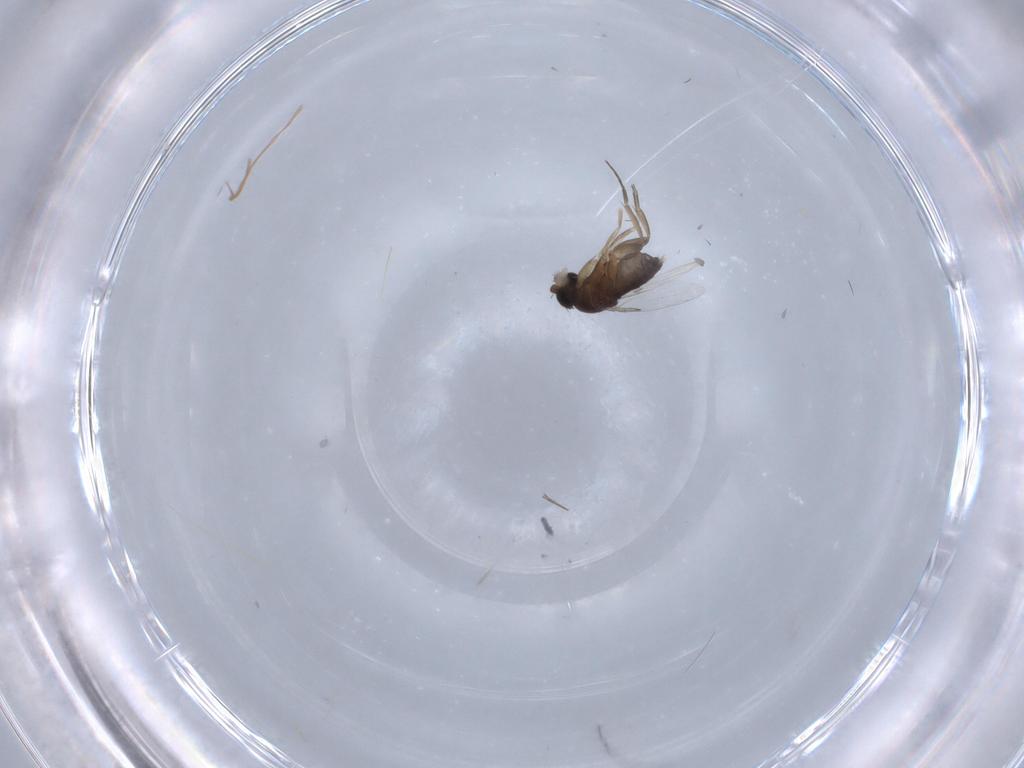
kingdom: Animalia
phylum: Arthropoda
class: Insecta
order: Diptera
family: Phoridae
